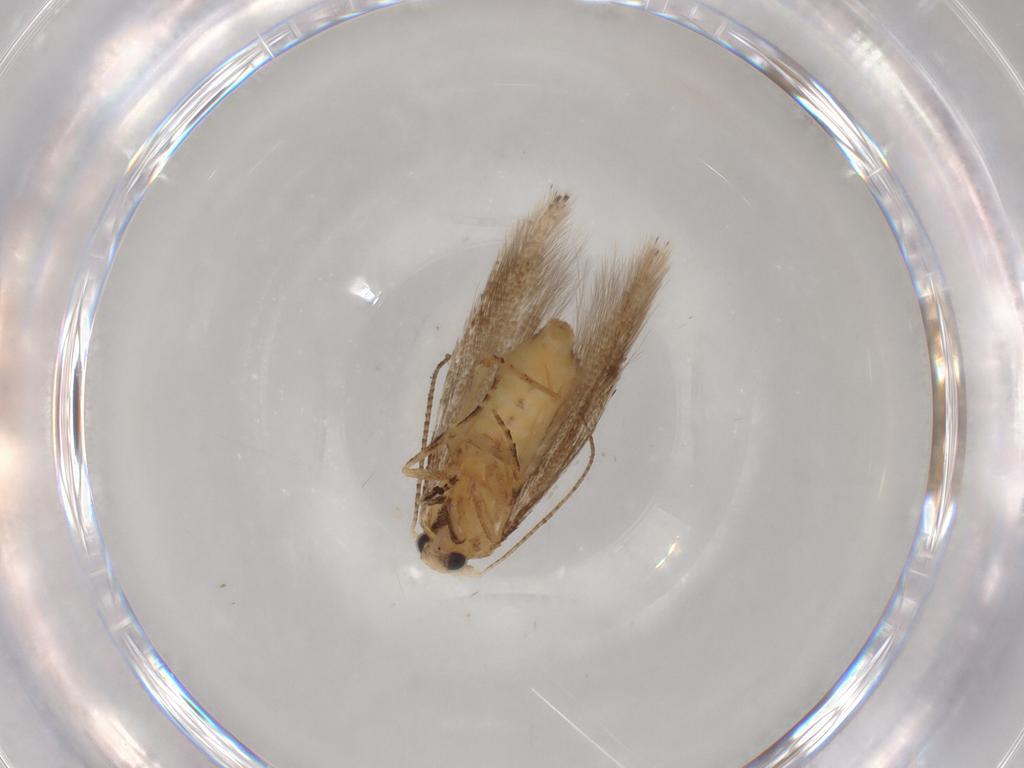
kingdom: Animalia
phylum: Arthropoda
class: Insecta
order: Lepidoptera
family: Bucculatricidae
